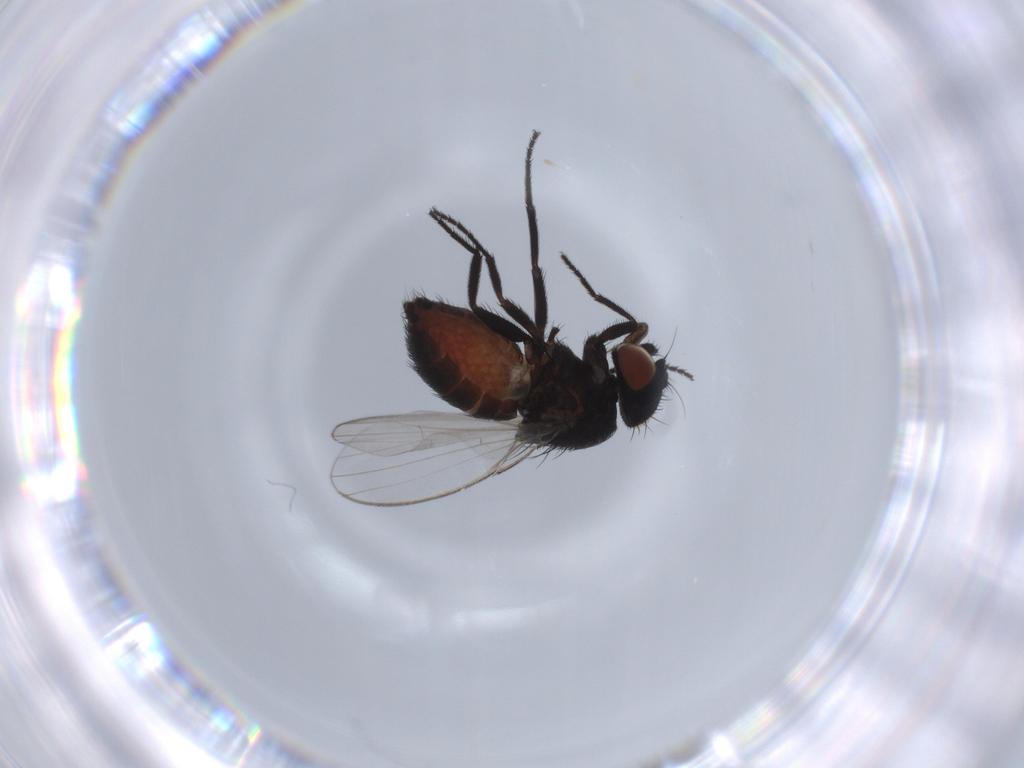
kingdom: Animalia
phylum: Arthropoda
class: Insecta
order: Diptera
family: Milichiidae
